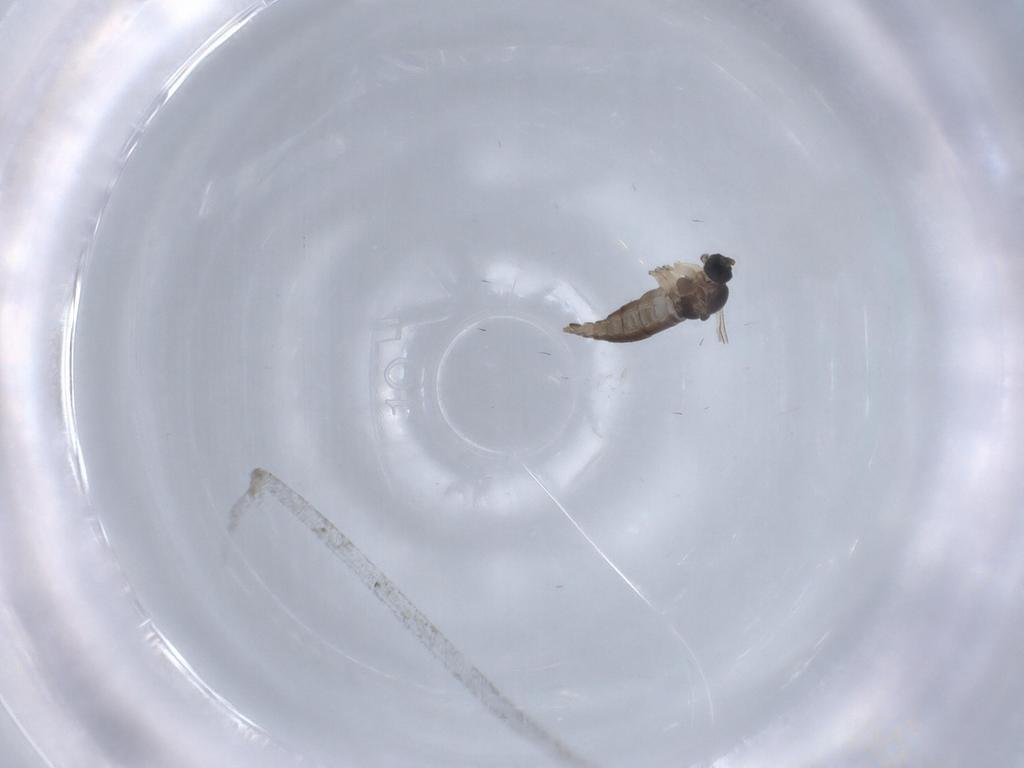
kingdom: Animalia
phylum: Arthropoda
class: Insecta
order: Diptera
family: Sciaridae
